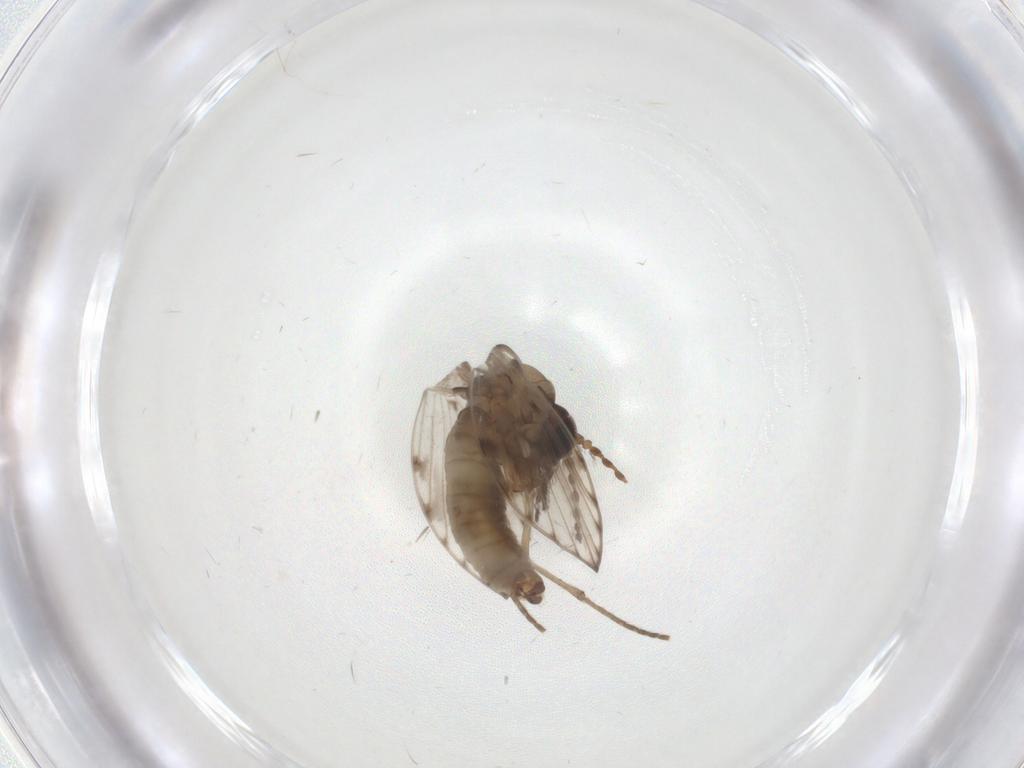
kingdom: Animalia
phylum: Arthropoda
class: Insecta
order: Diptera
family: Psychodidae
